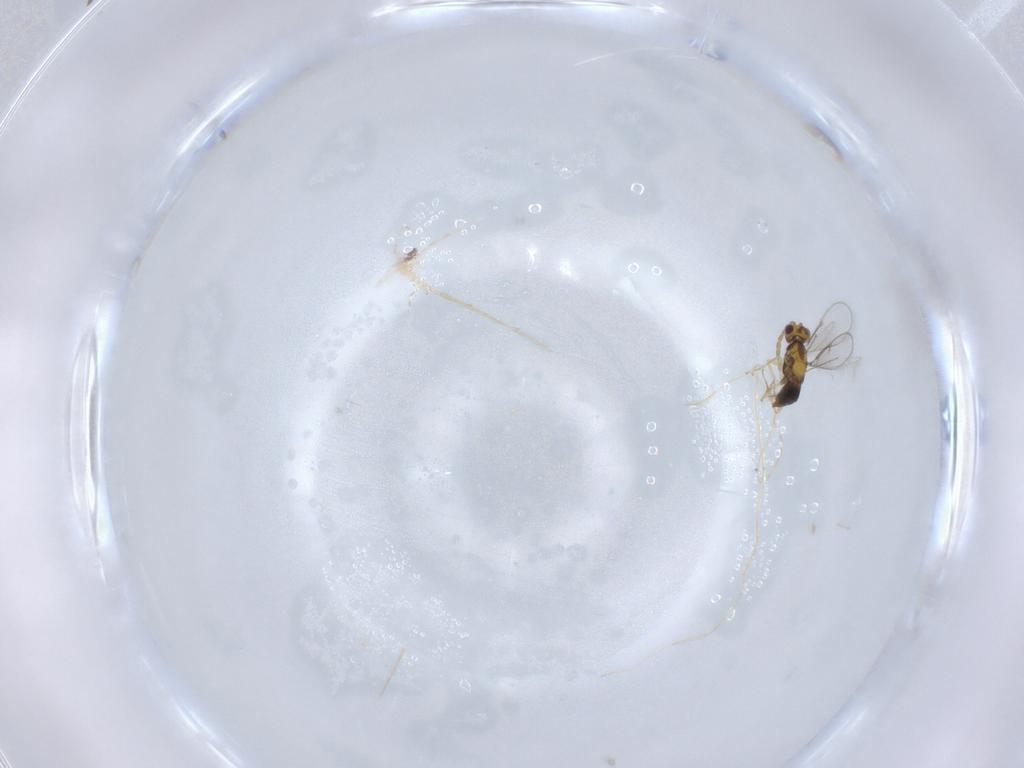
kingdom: Animalia
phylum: Arthropoda
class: Insecta
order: Hymenoptera
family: Aphelinidae
